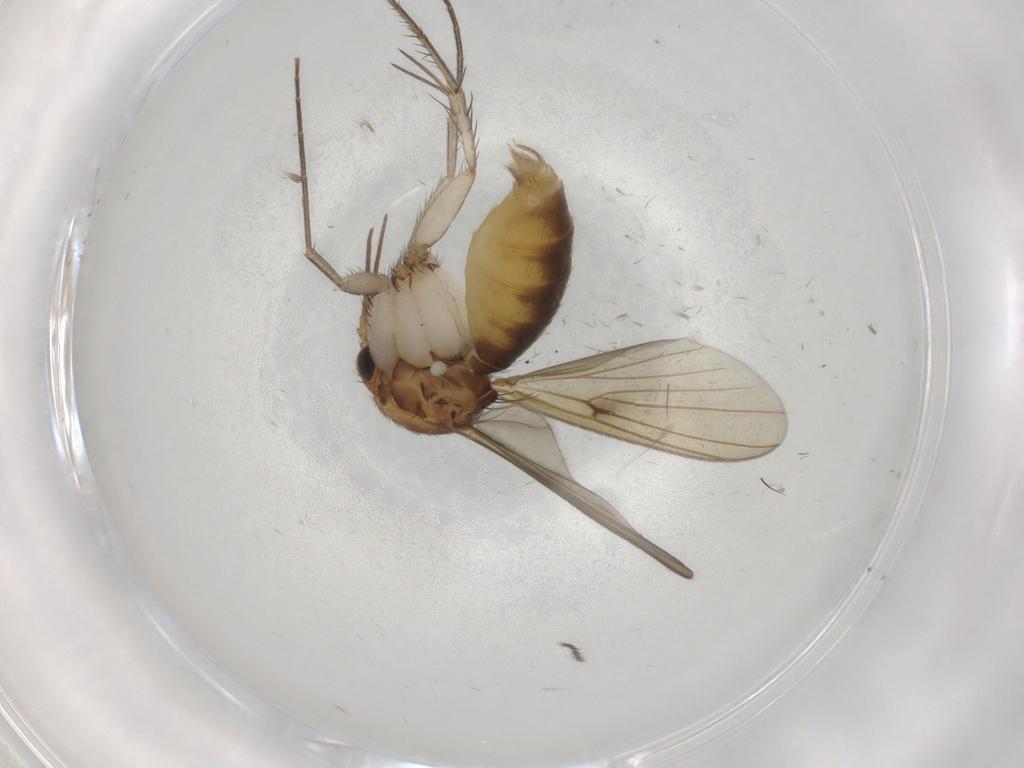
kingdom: Animalia
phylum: Arthropoda
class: Insecta
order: Diptera
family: Mycetophilidae
